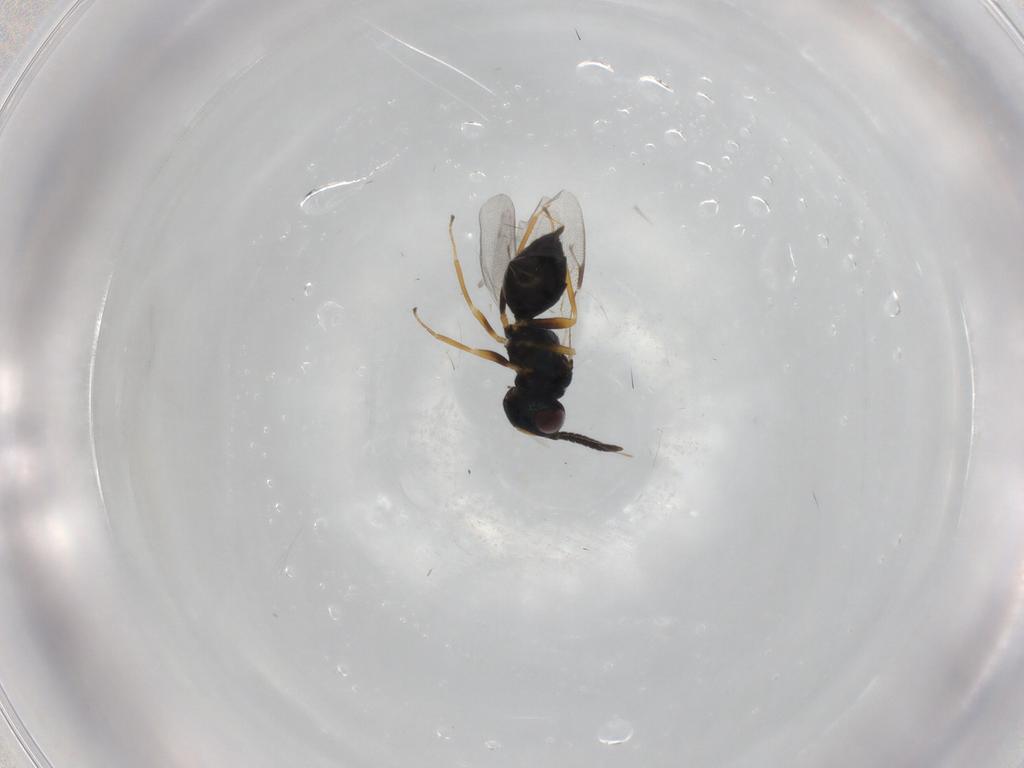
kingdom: Animalia
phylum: Arthropoda
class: Insecta
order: Hymenoptera
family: Pteromalidae
